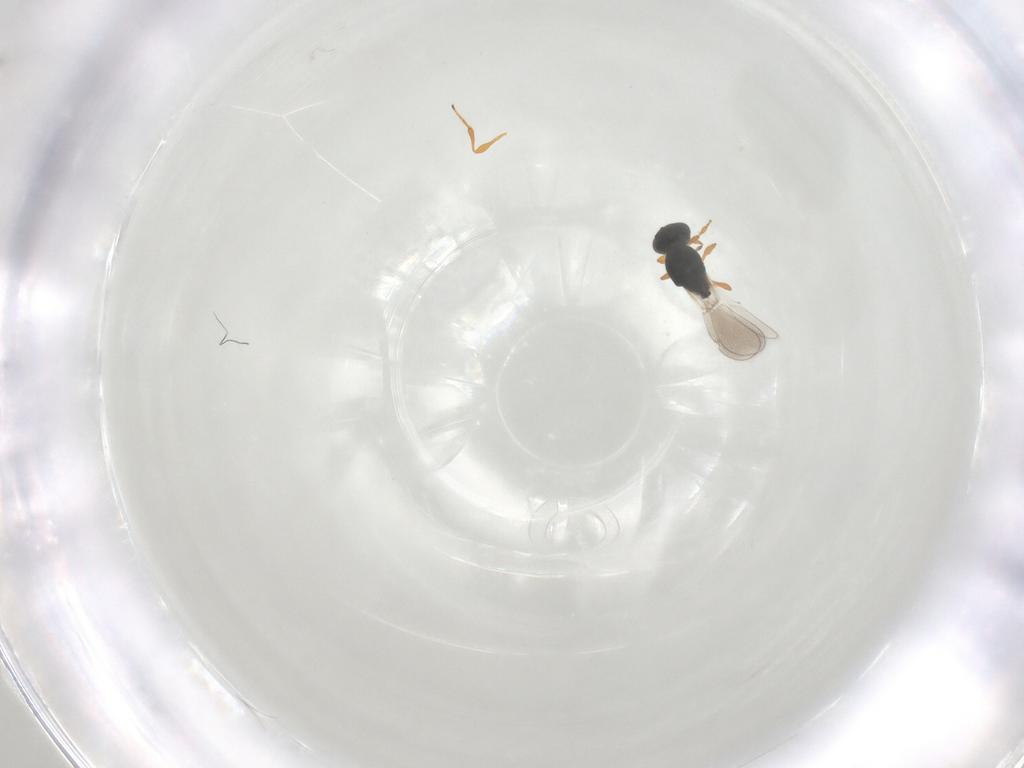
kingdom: Animalia
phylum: Arthropoda
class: Insecta
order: Hymenoptera
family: Platygastridae
